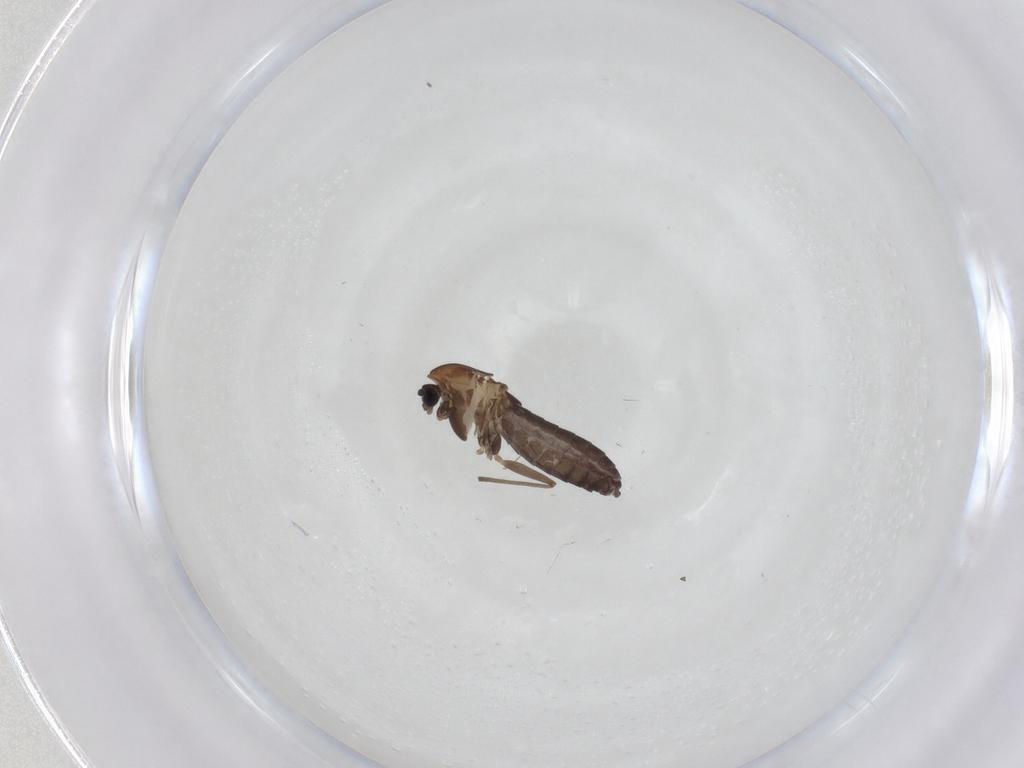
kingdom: Animalia
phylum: Arthropoda
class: Insecta
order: Diptera
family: Chironomidae
